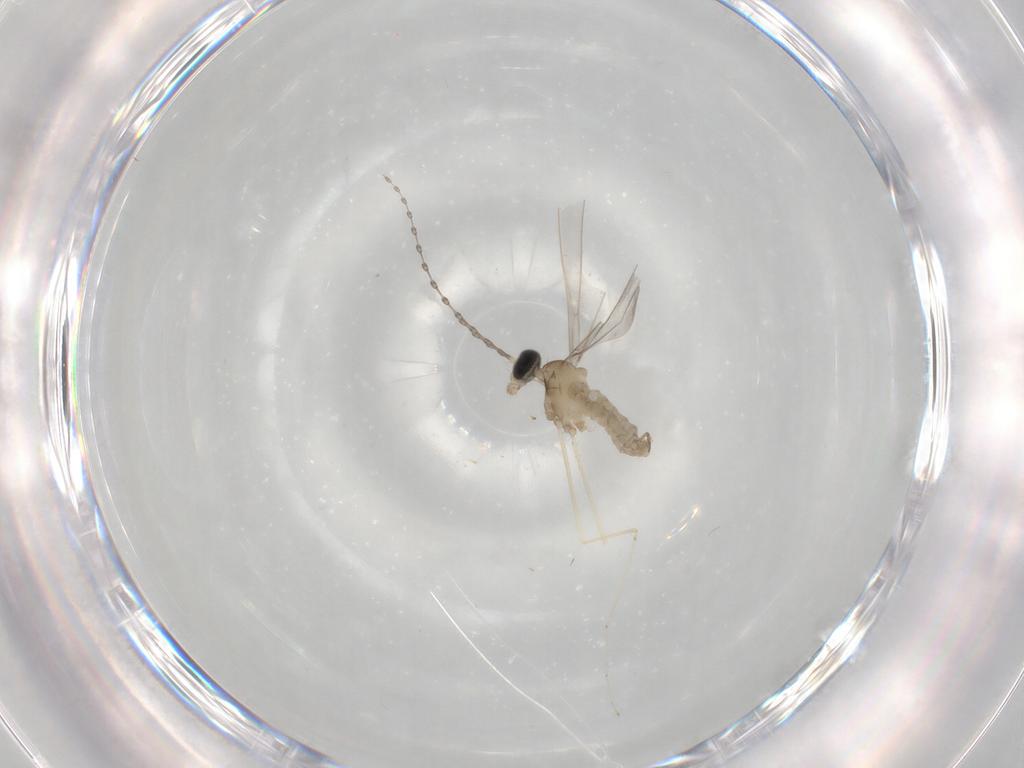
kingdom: Animalia
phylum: Arthropoda
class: Insecta
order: Diptera
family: Cecidomyiidae
